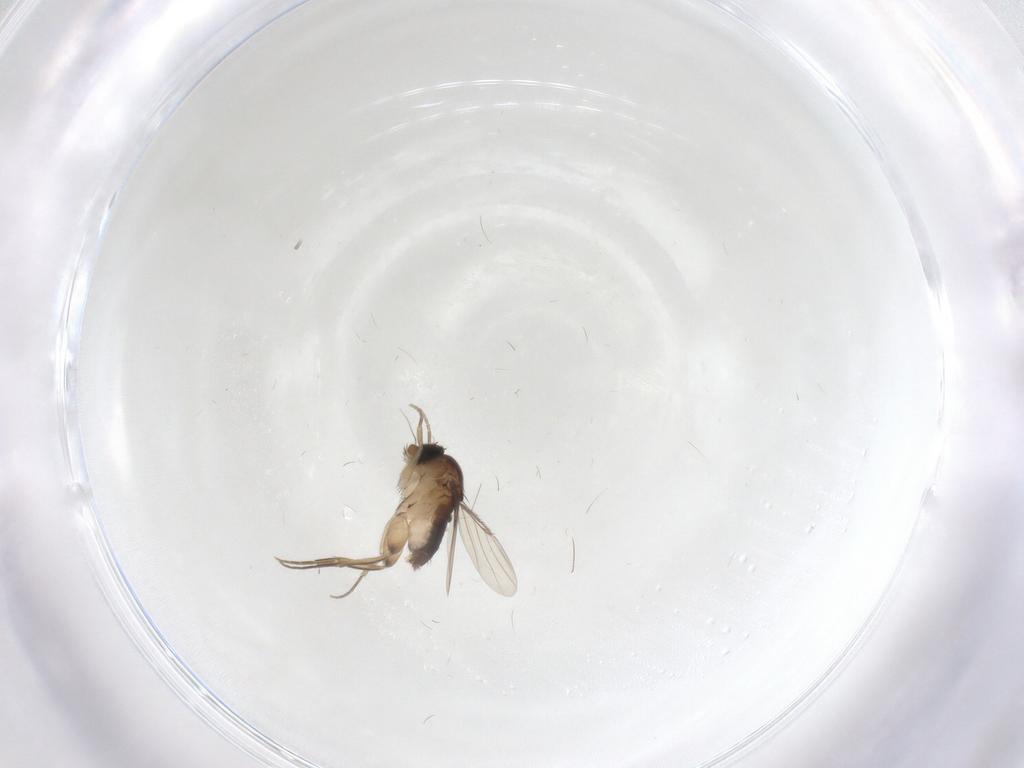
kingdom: Animalia
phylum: Arthropoda
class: Insecta
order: Diptera
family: Phoridae
